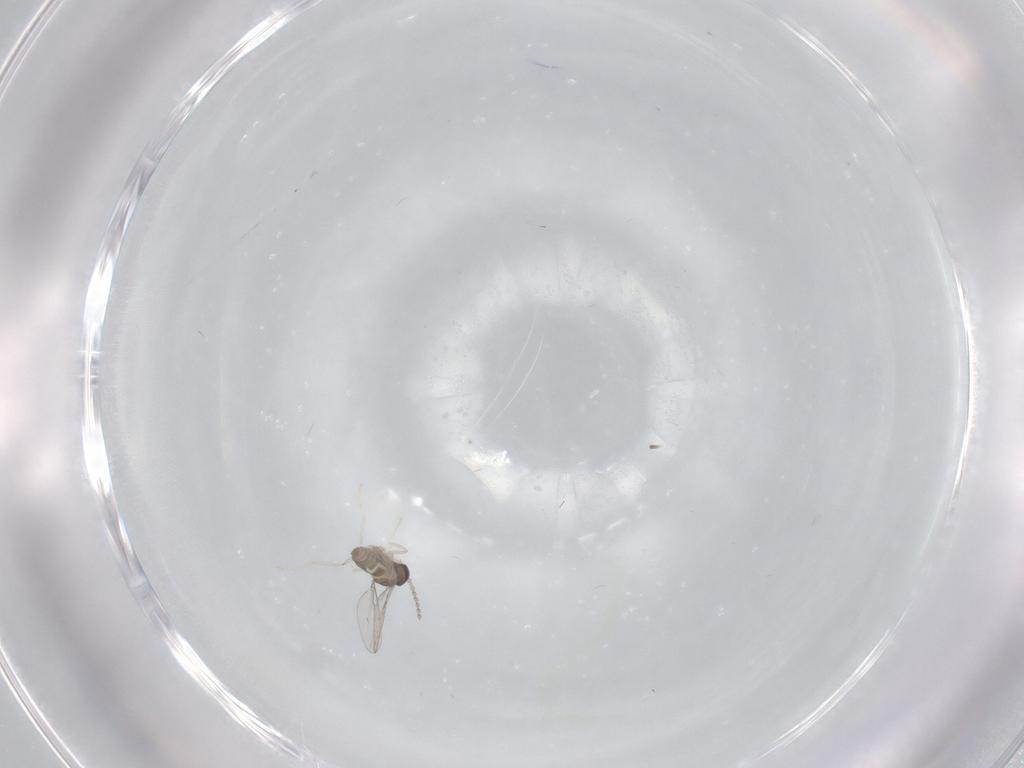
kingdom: Animalia
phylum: Arthropoda
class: Insecta
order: Diptera
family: Cecidomyiidae
